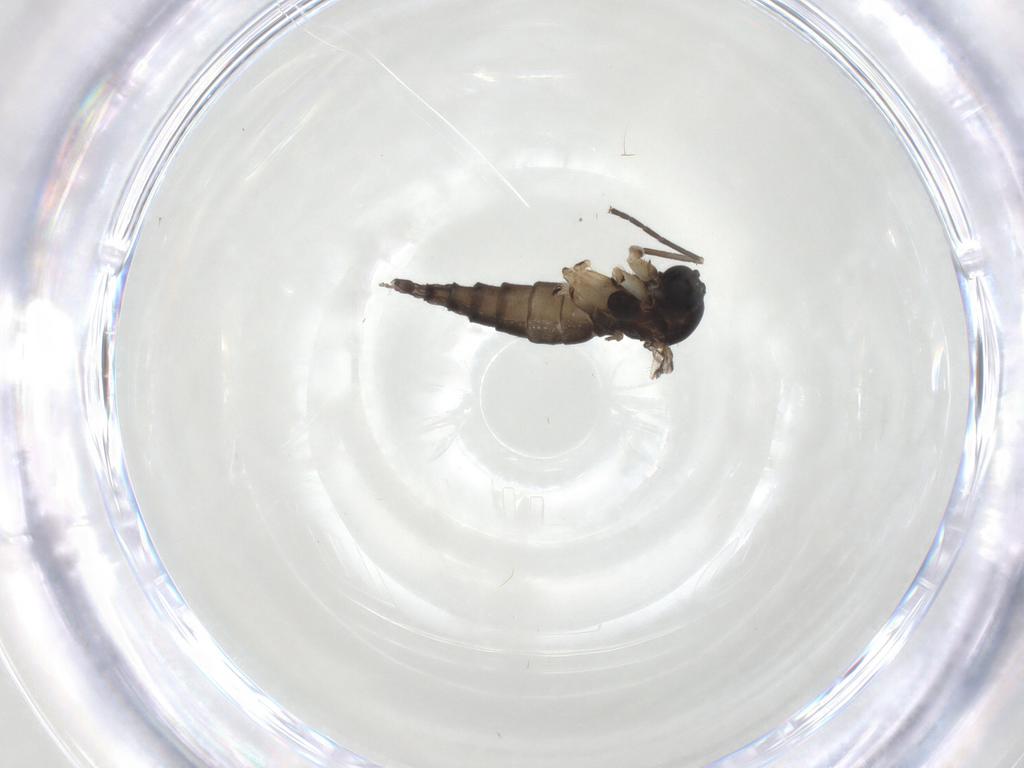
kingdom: Animalia
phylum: Arthropoda
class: Insecta
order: Diptera
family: Sciaridae
